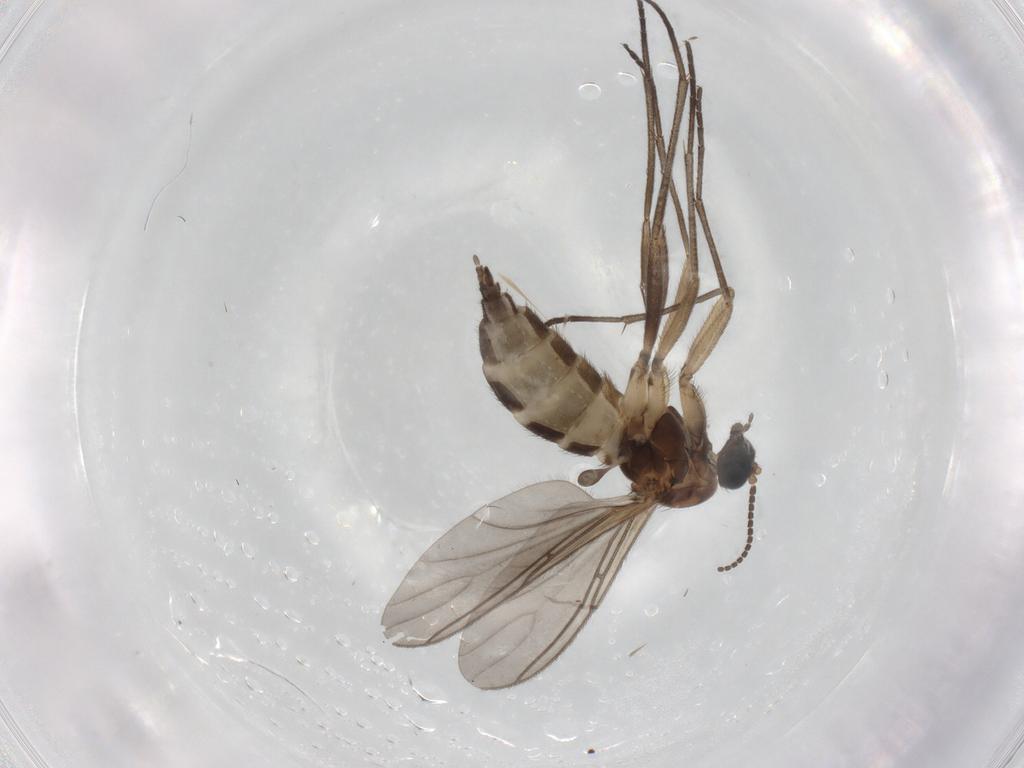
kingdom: Animalia
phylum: Arthropoda
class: Insecta
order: Diptera
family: Sciaridae
